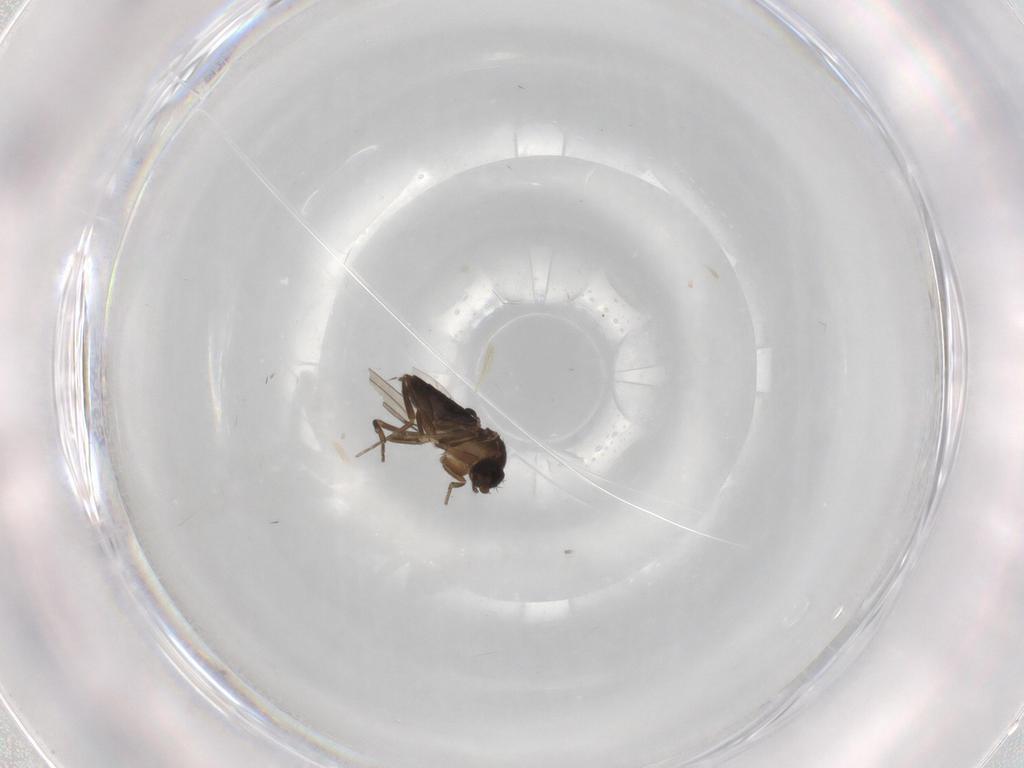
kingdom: Animalia
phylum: Arthropoda
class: Insecta
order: Diptera
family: Phoridae
